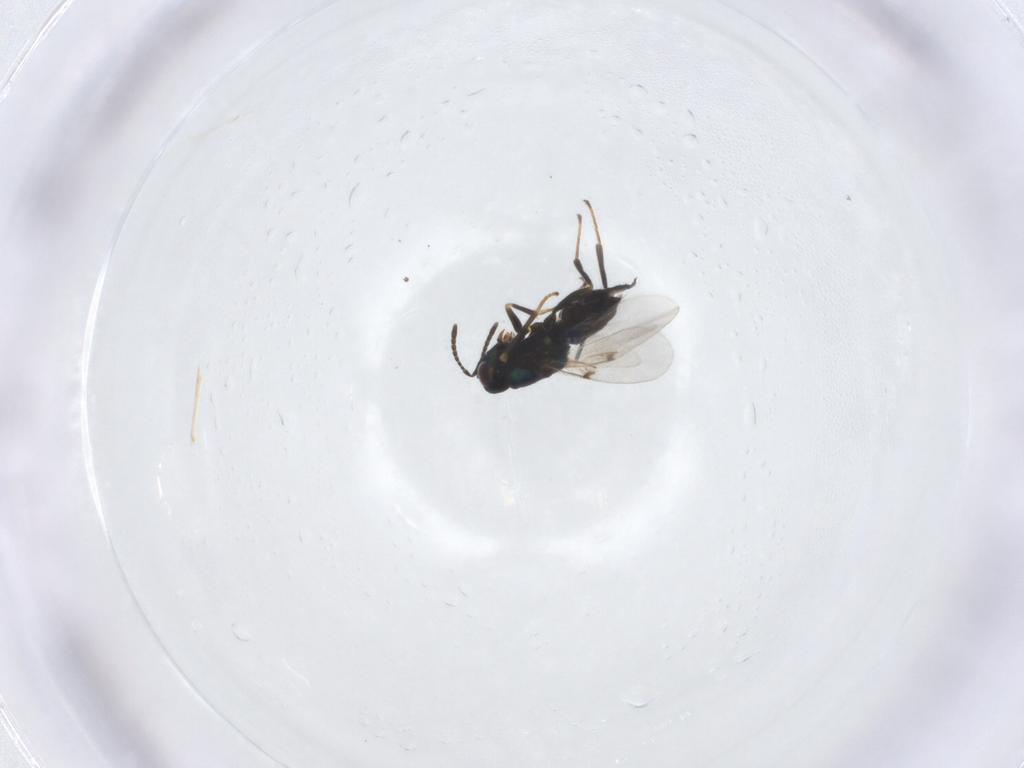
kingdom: Animalia
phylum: Arthropoda
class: Insecta
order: Hymenoptera
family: Encyrtidae
